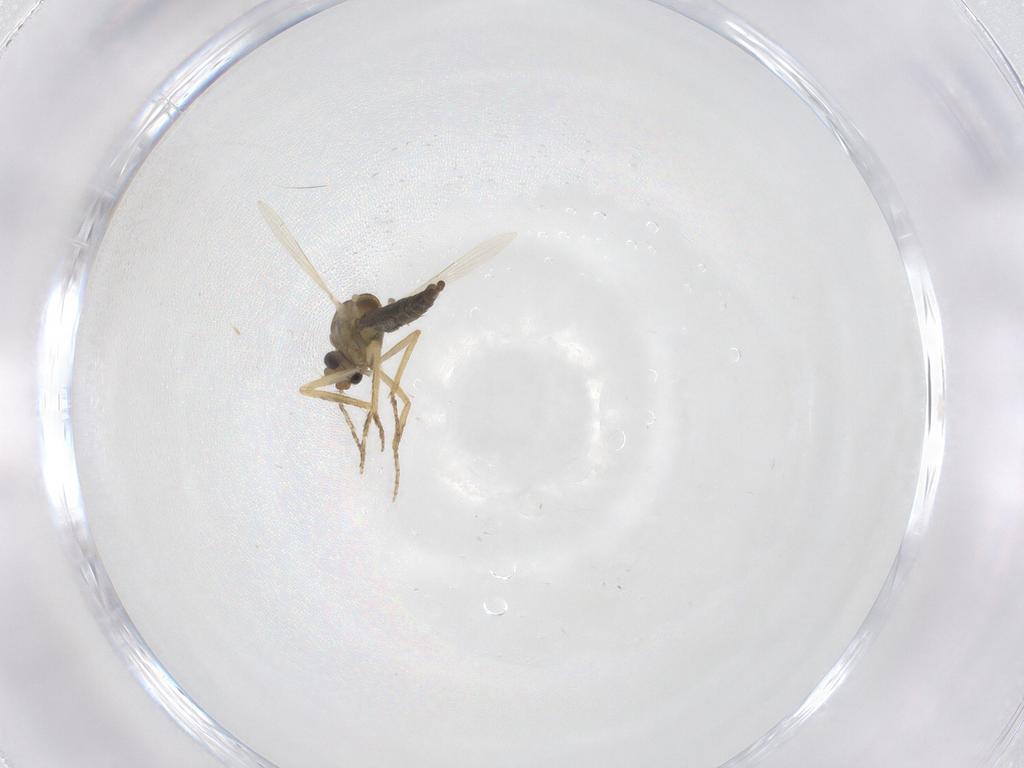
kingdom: Animalia
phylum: Arthropoda
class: Insecta
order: Diptera
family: Ceratopogonidae
